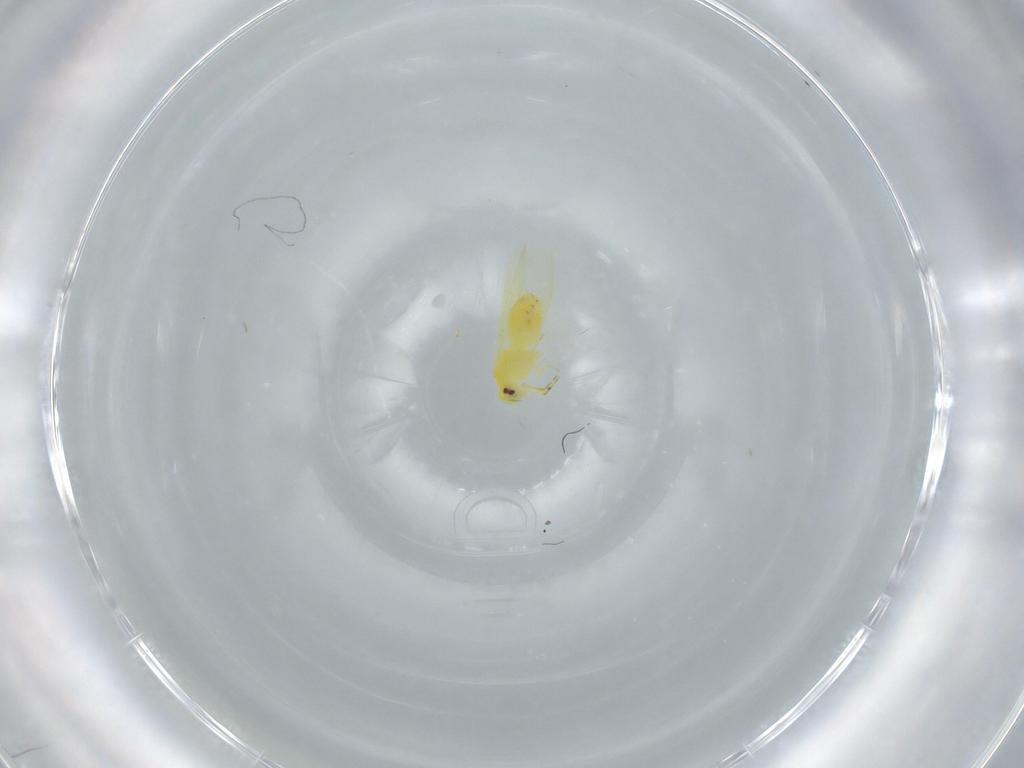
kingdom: Animalia
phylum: Arthropoda
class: Insecta
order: Hemiptera
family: Aleyrodidae
